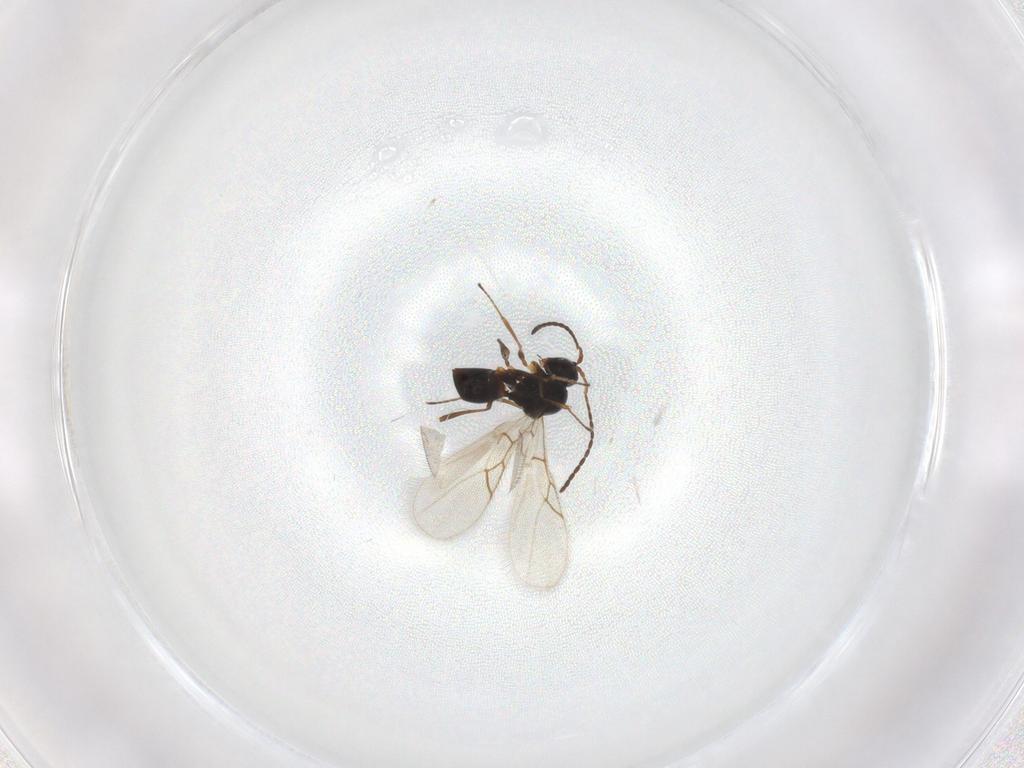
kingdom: Animalia
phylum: Arthropoda
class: Insecta
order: Hymenoptera
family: Figitidae
